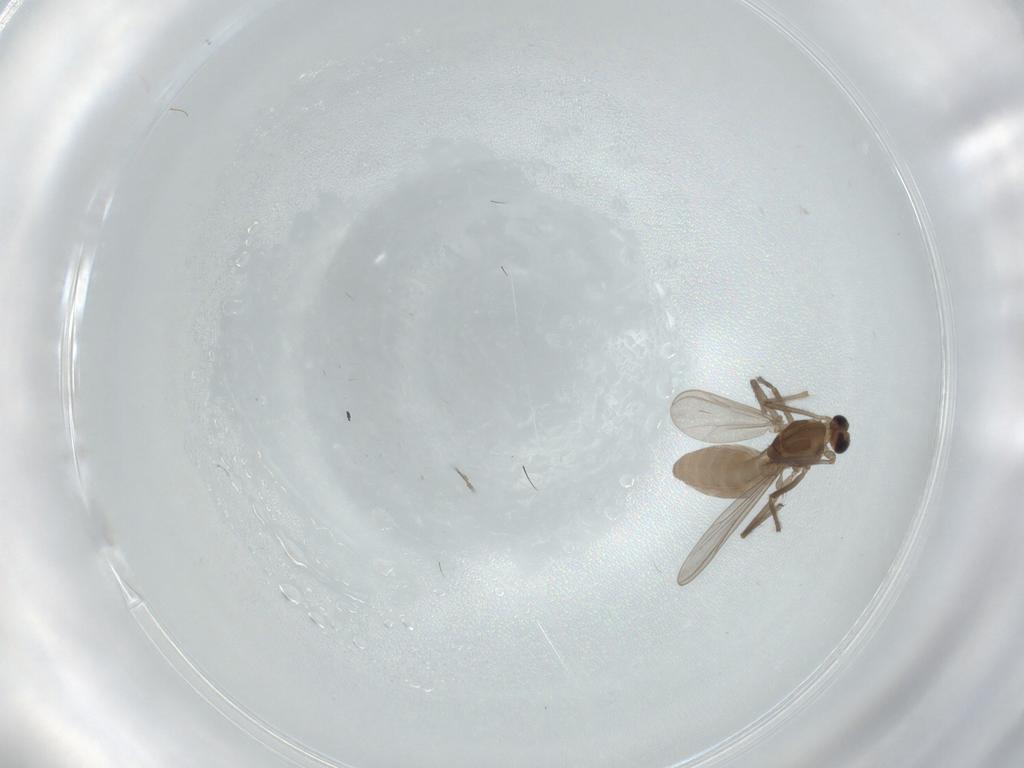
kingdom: Animalia
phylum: Arthropoda
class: Insecta
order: Diptera
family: Chironomidae
